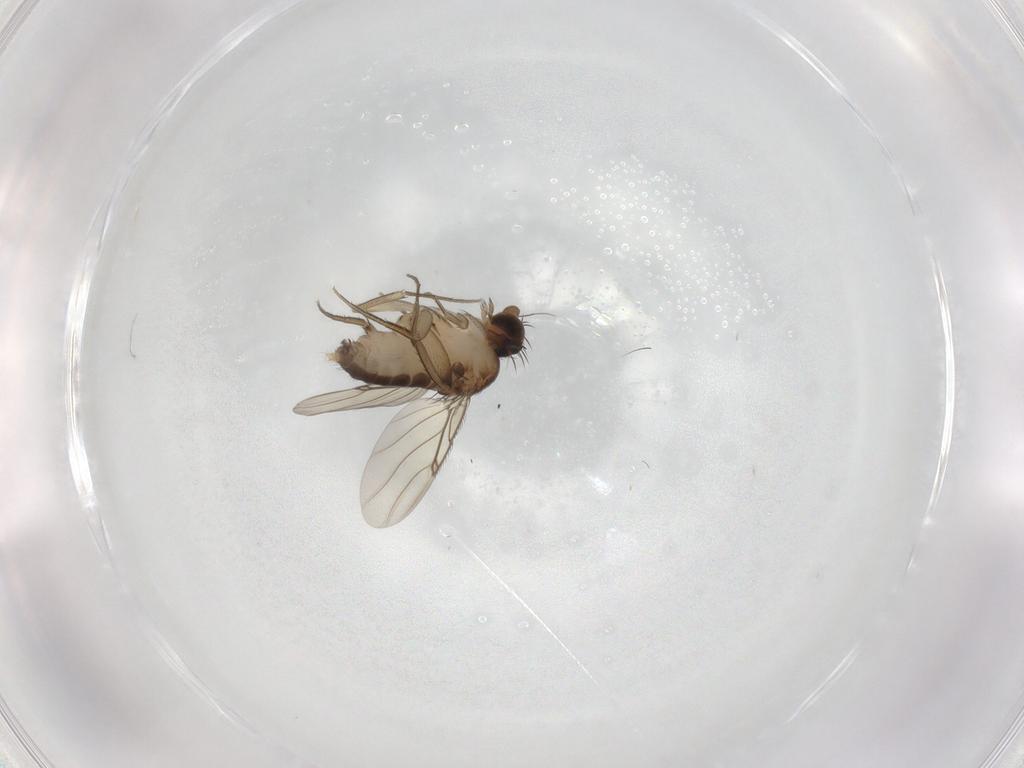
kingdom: Animalia
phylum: Arthropoda
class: Insecta
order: Diptera
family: Phoridae
